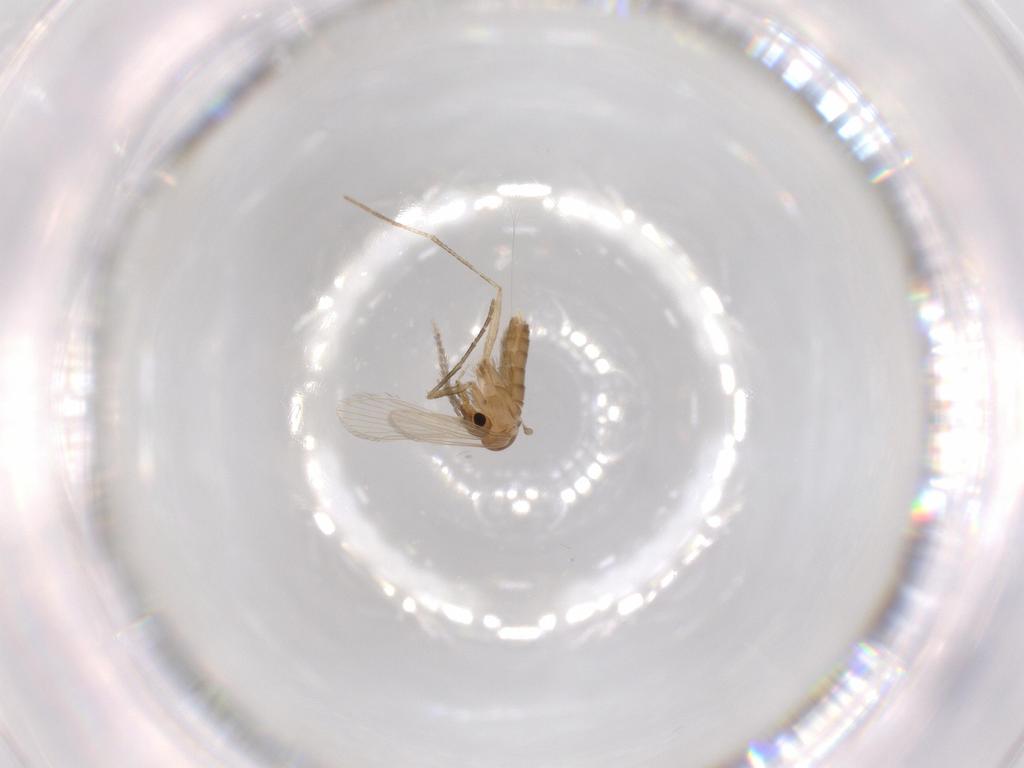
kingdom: Animalia
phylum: Arthropoda
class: Insecta
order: Diptera
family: Psychodidae
